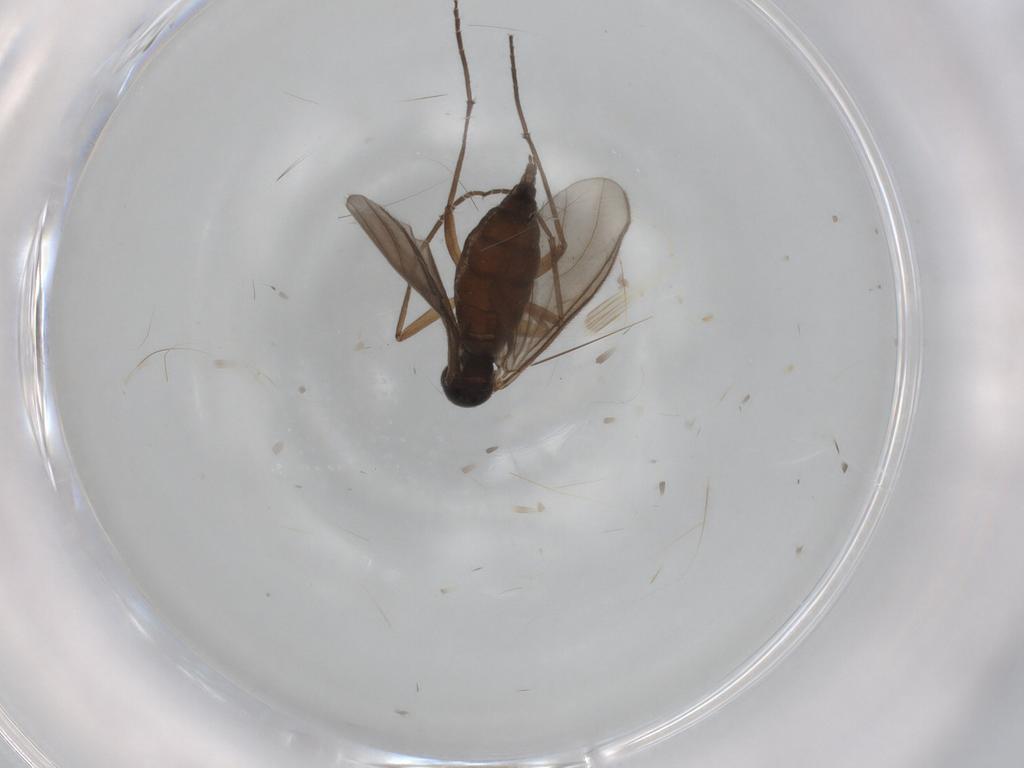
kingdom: Animalia
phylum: Arthropoda
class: Insecta
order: Diptera
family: Sciaridae
